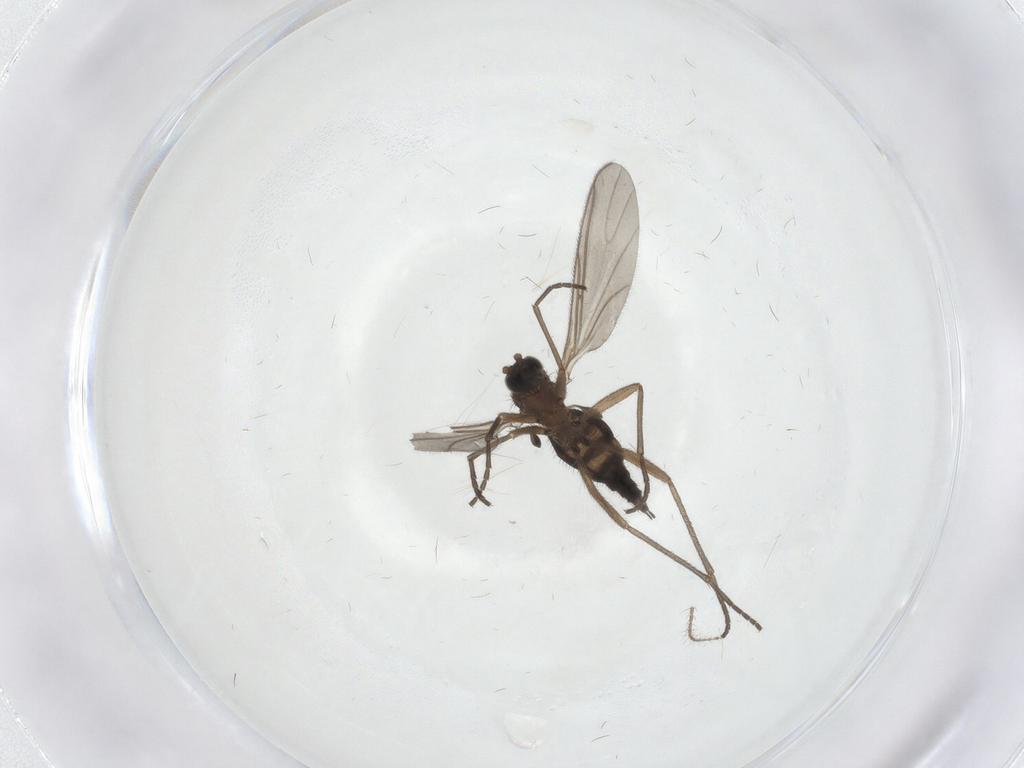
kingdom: Animalia
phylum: Arthropoda
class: Insecta
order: Diptera
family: Sciaridae
